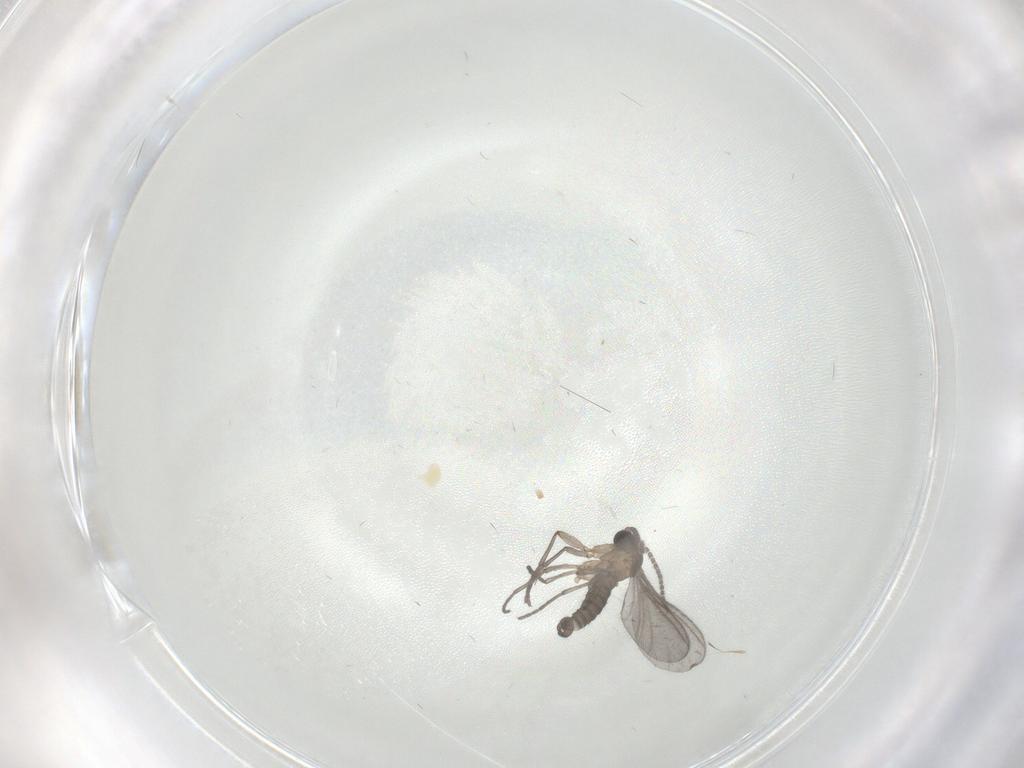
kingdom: Animalia
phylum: Arthropoda
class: Insecta
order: Diptera
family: Sciaridae
